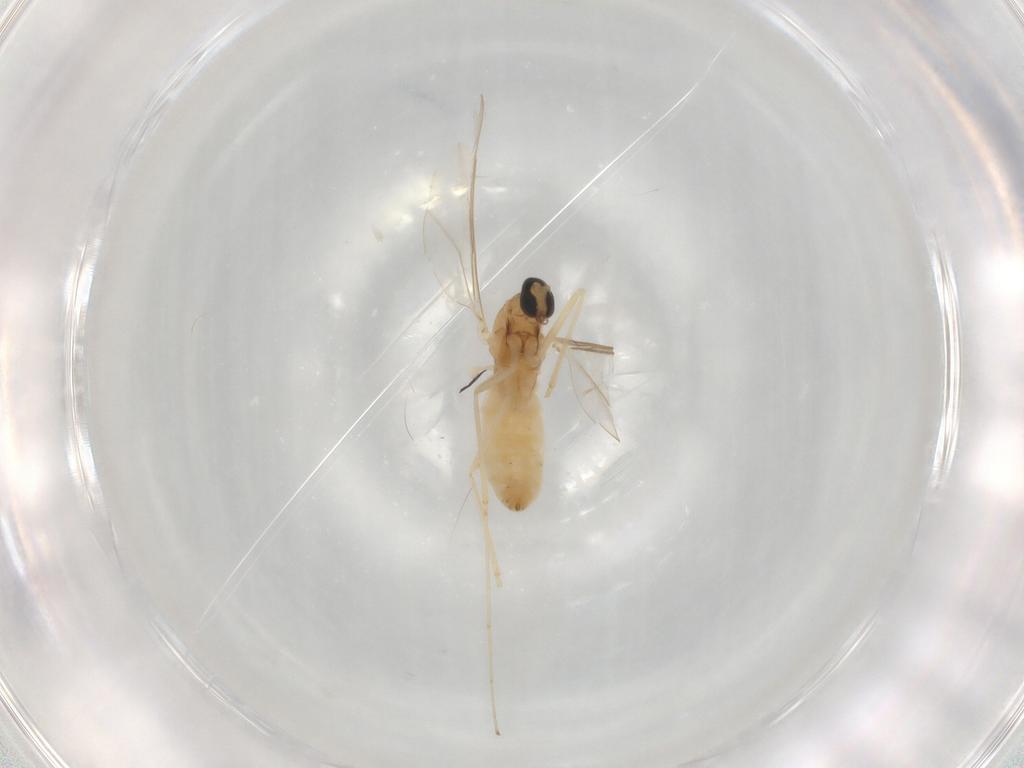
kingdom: Animalia
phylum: Arthropoda
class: Insecta
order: Diptera
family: Cecidomyiidae
